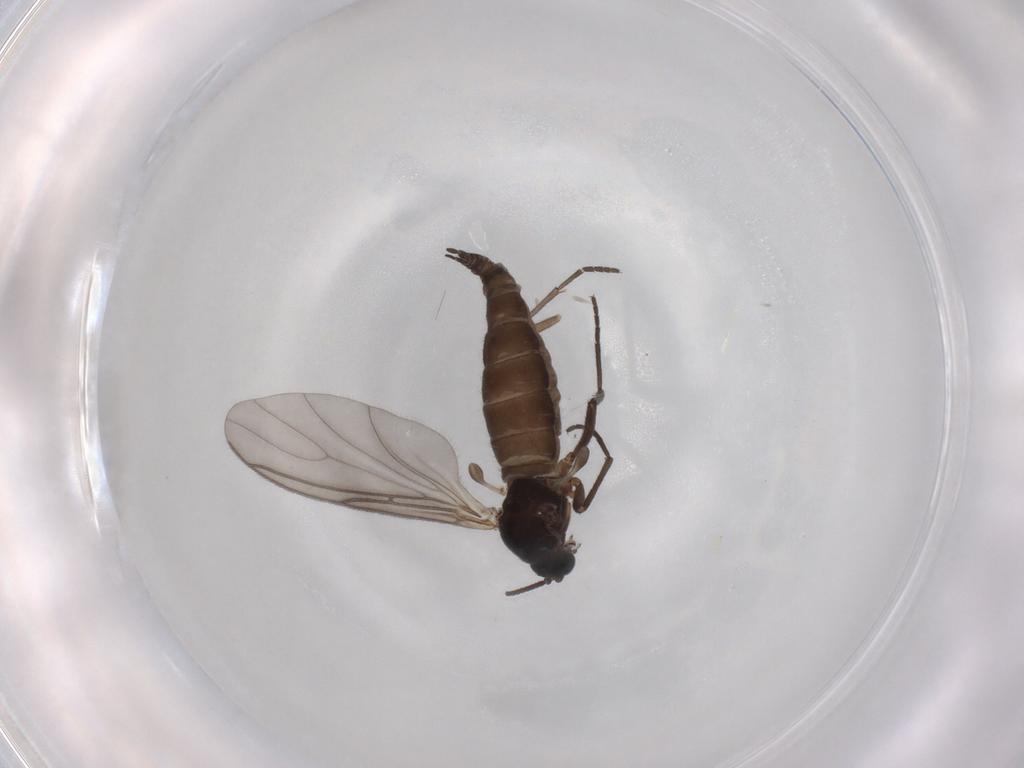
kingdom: Animalia
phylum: Arthropoda
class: Insecta
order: Diptera
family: Sciaridae
